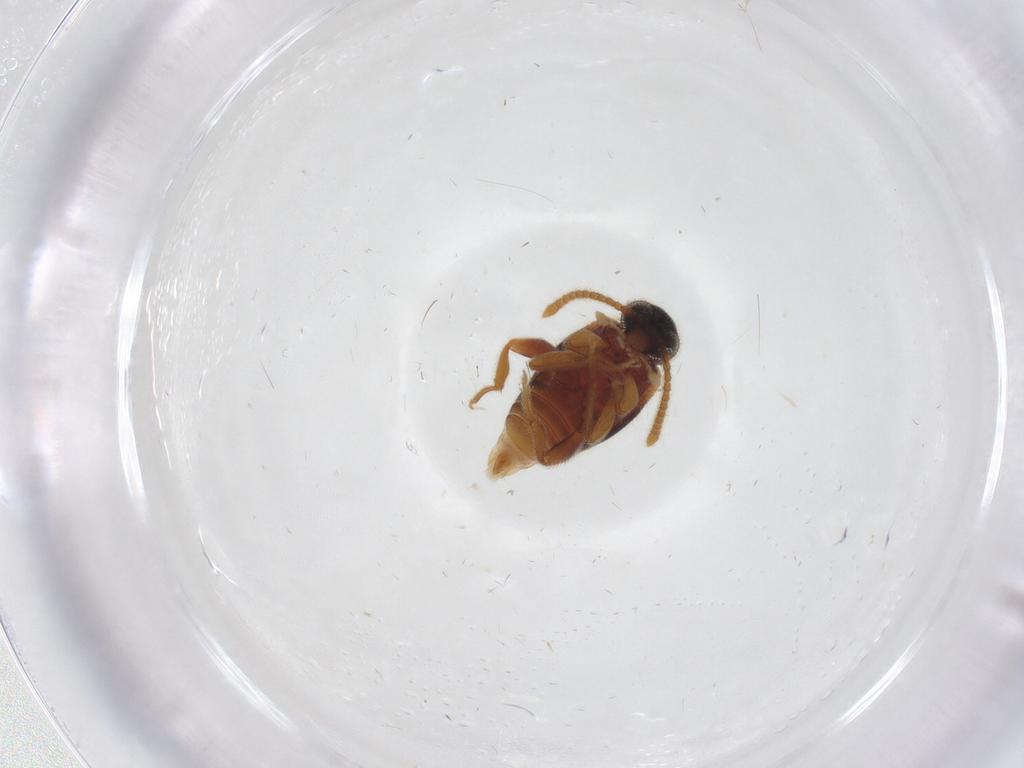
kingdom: Animalia
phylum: Arthropoda
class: Insecta
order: Coleoptera
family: Aderidae
